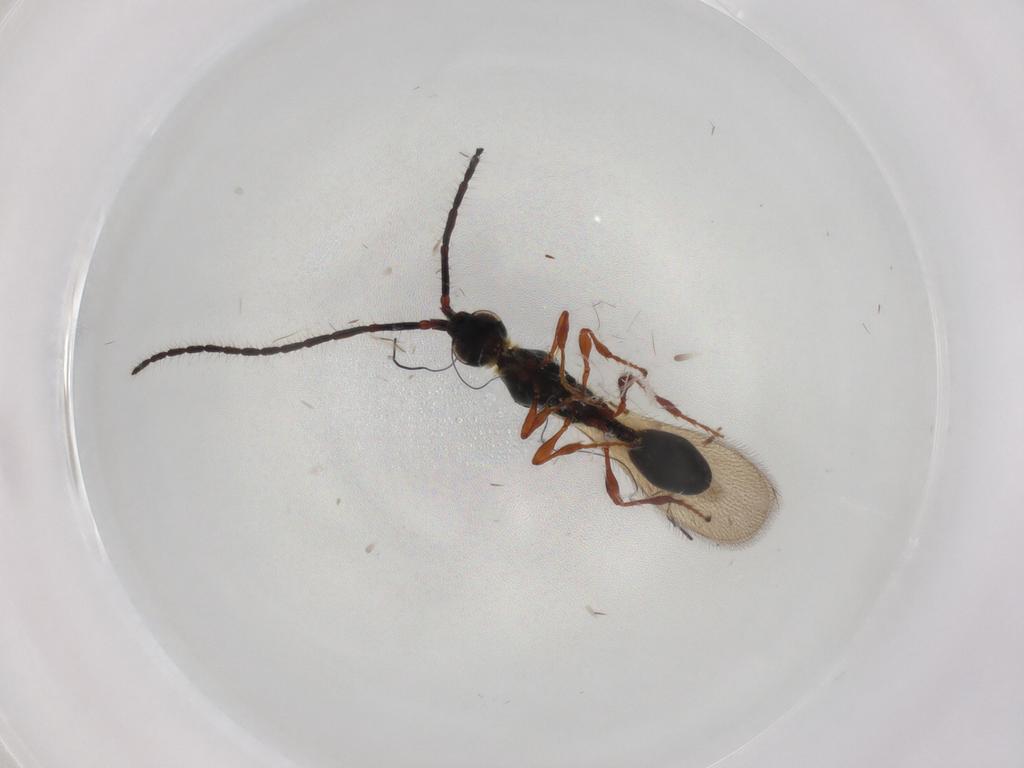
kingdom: Animalia
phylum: Arthropoda
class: Insecta
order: Hymenoptera
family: Diapriidae
